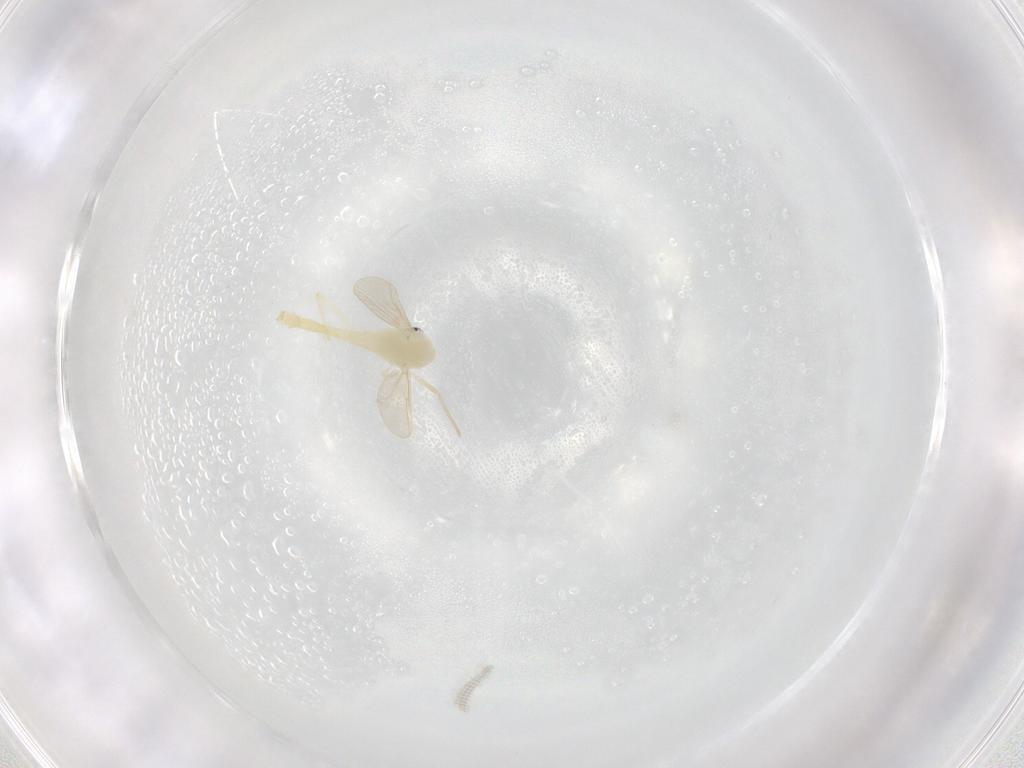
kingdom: Animalia
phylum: Arthropoda
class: Insecta
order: Diptera
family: Chironomidae
